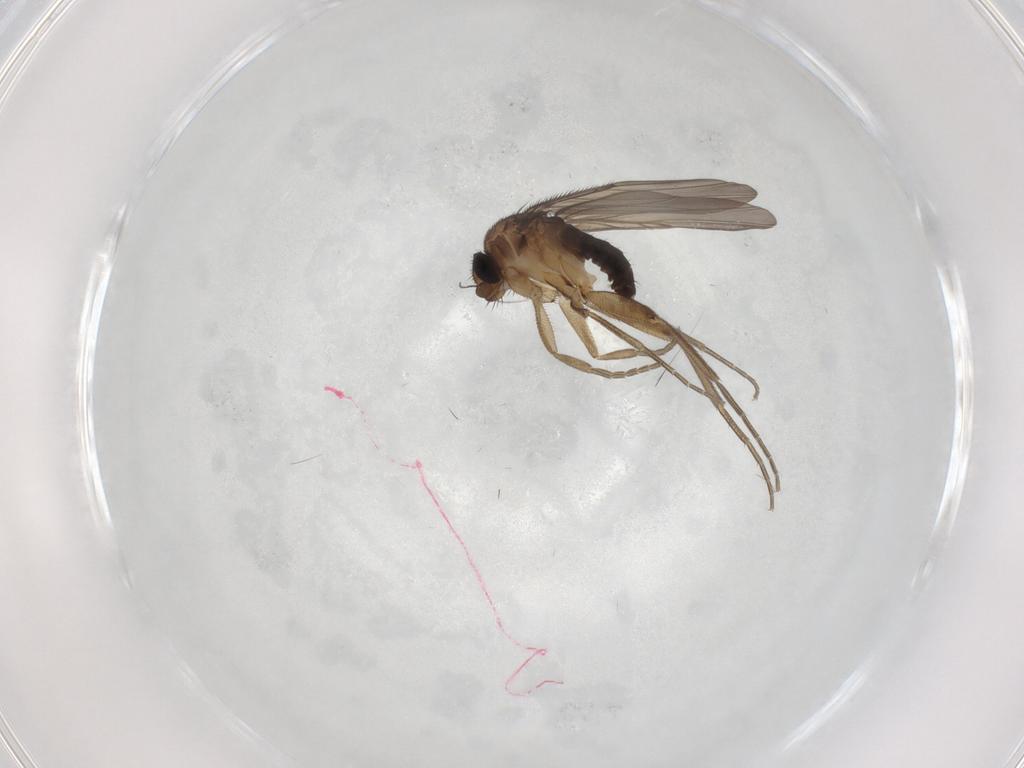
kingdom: Animalia
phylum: Arthropoda
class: Insecta
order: Diptera
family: Phoridae
